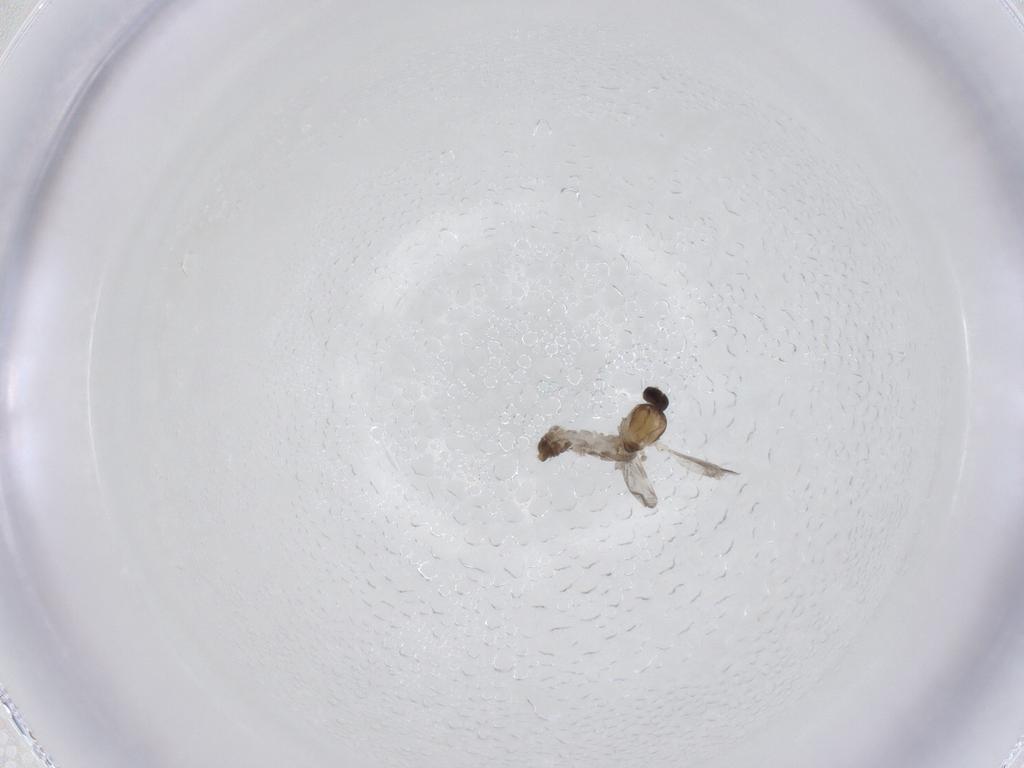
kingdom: Animalia
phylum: Arthropoda
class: Insecta
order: Diptera
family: Ceratopogonidae
